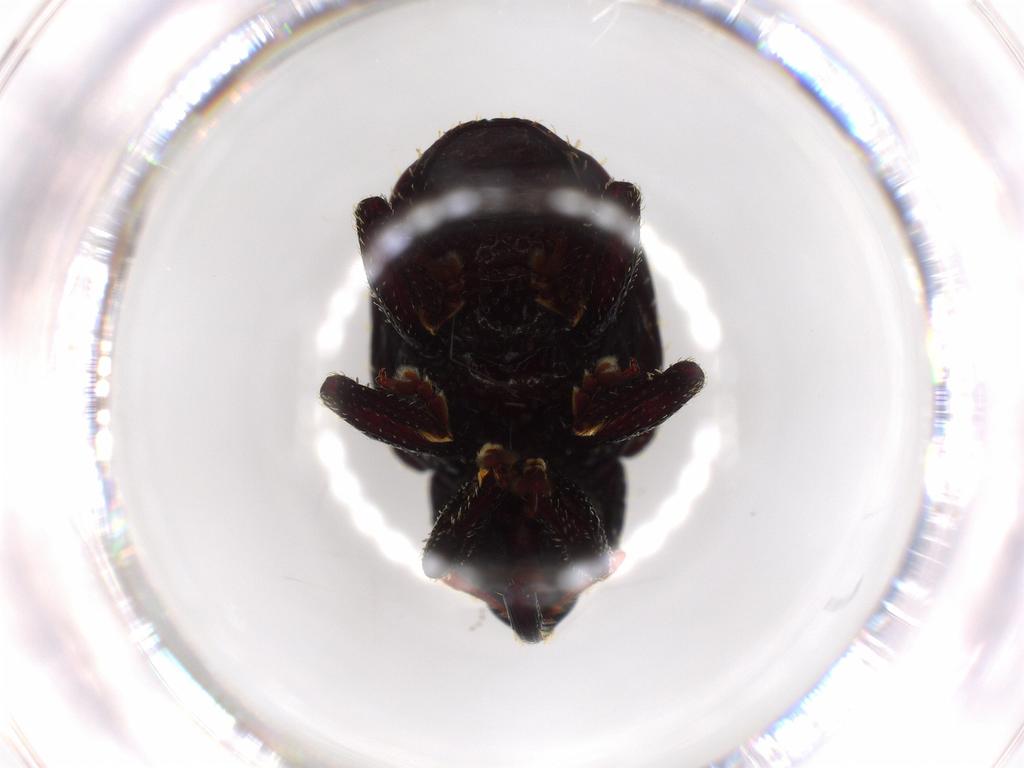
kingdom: Animalia
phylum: Arthropoda
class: Insecta
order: Coleoptera
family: Curculionidae
